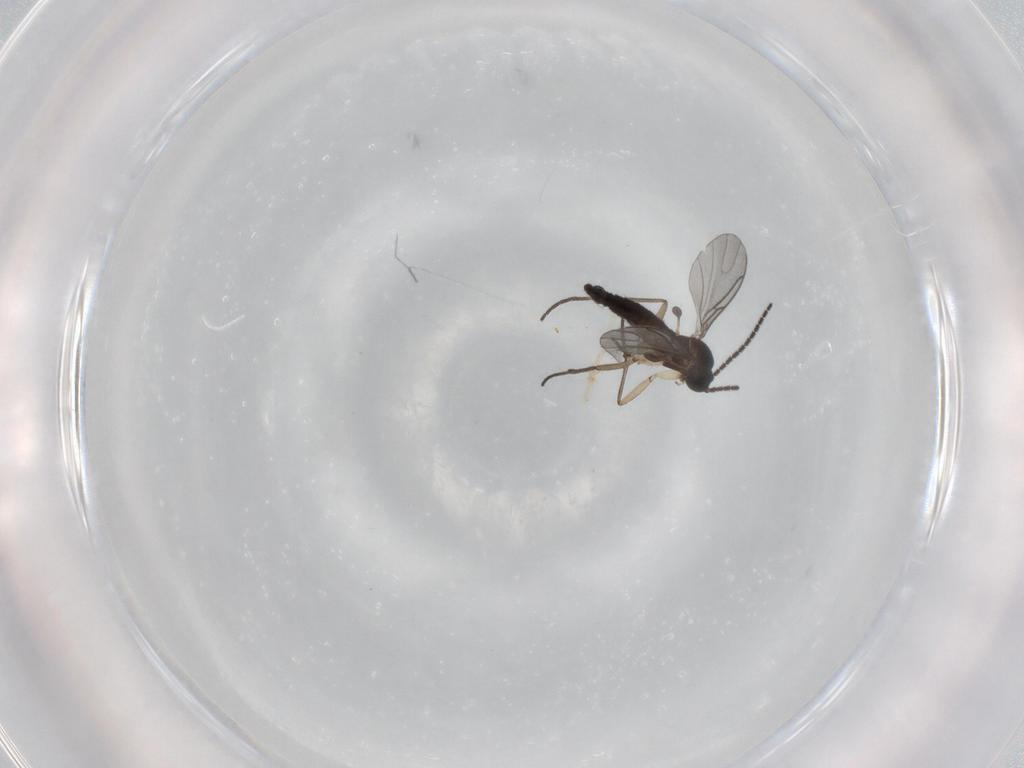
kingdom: Animalia
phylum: Arthropoda
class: Insecta
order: Diptera
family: Sciaridae
